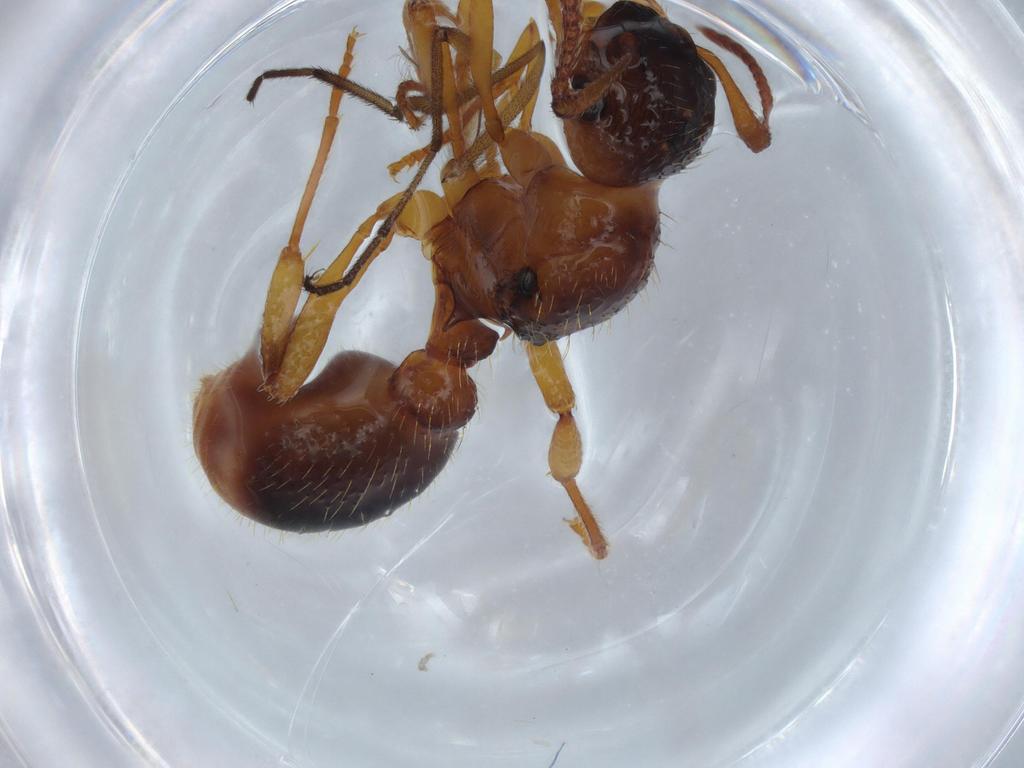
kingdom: Animalia
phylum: Arthropoda
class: Insecta
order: Hymenoptera
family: Formicidae
